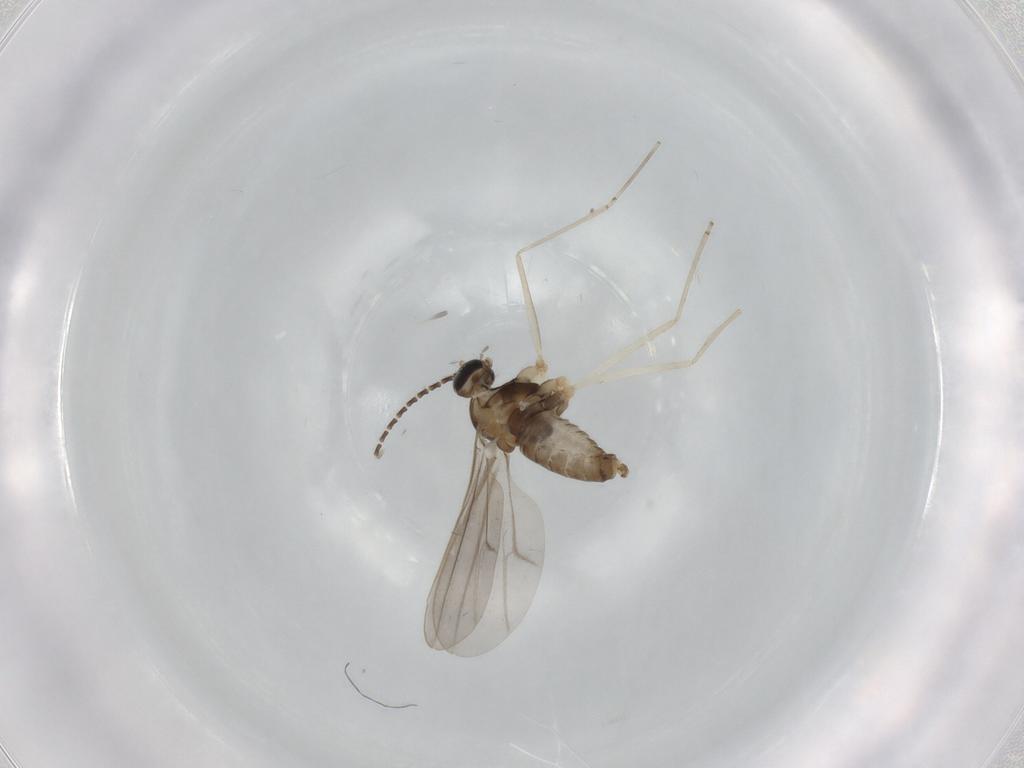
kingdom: Animalia
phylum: Arthropoda
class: Insecta
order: Diptera
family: Cecidomyiidae
